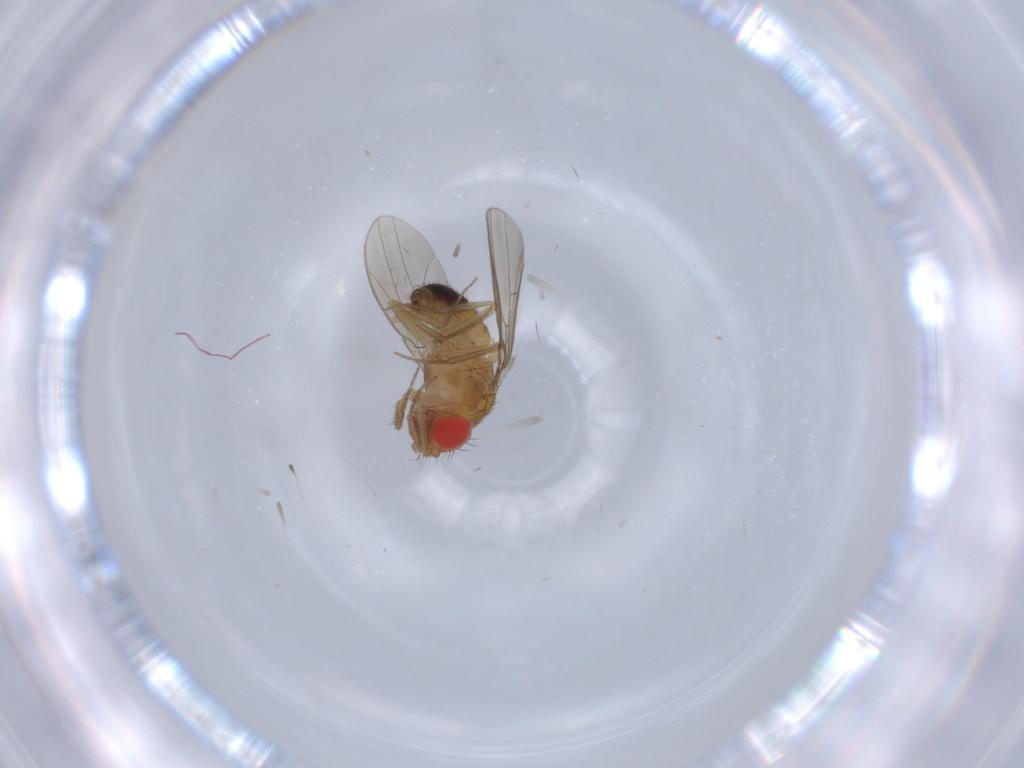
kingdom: Animalia
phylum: Arthropoda
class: Insecta
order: Diptera
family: Drosophilidae
